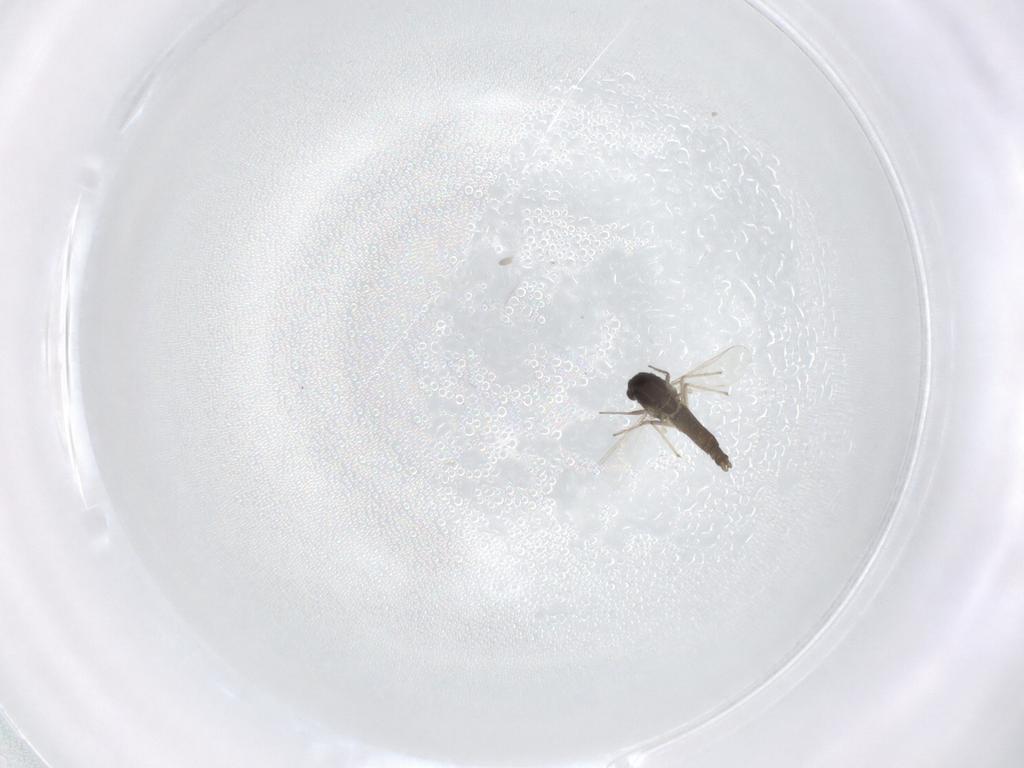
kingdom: Animalia
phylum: Arthropoda
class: Insecta
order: Diptera
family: Chironomidae
